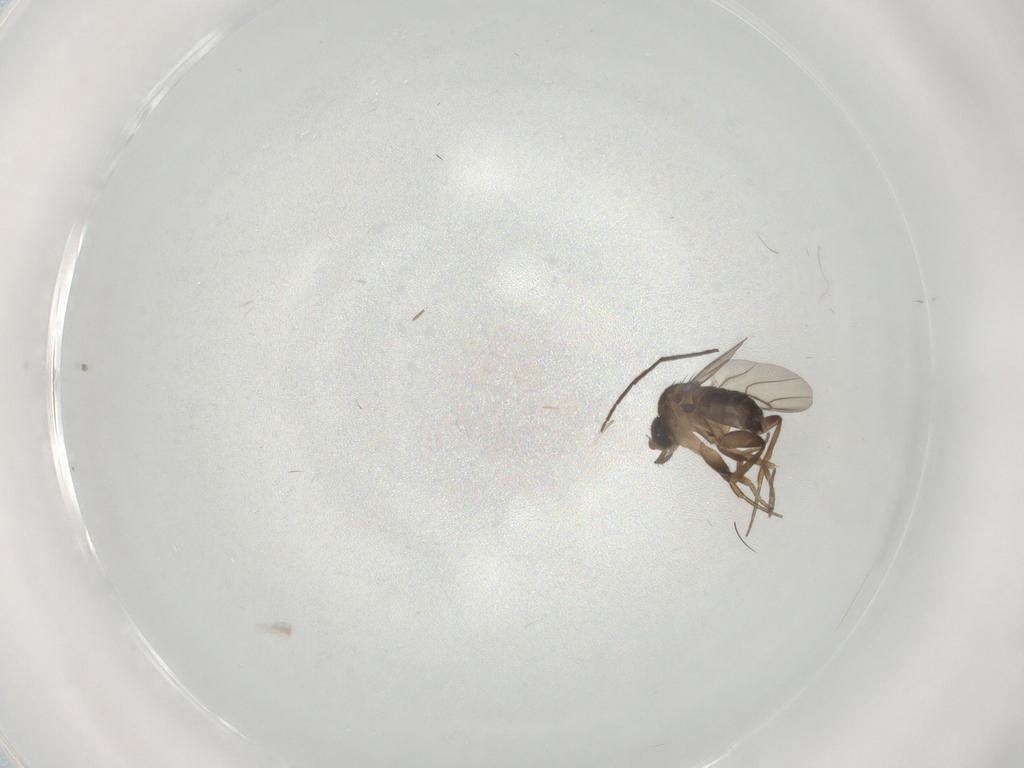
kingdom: Animalia
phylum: Arthropoda
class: Insecta
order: Diptera
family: Chironomidae
